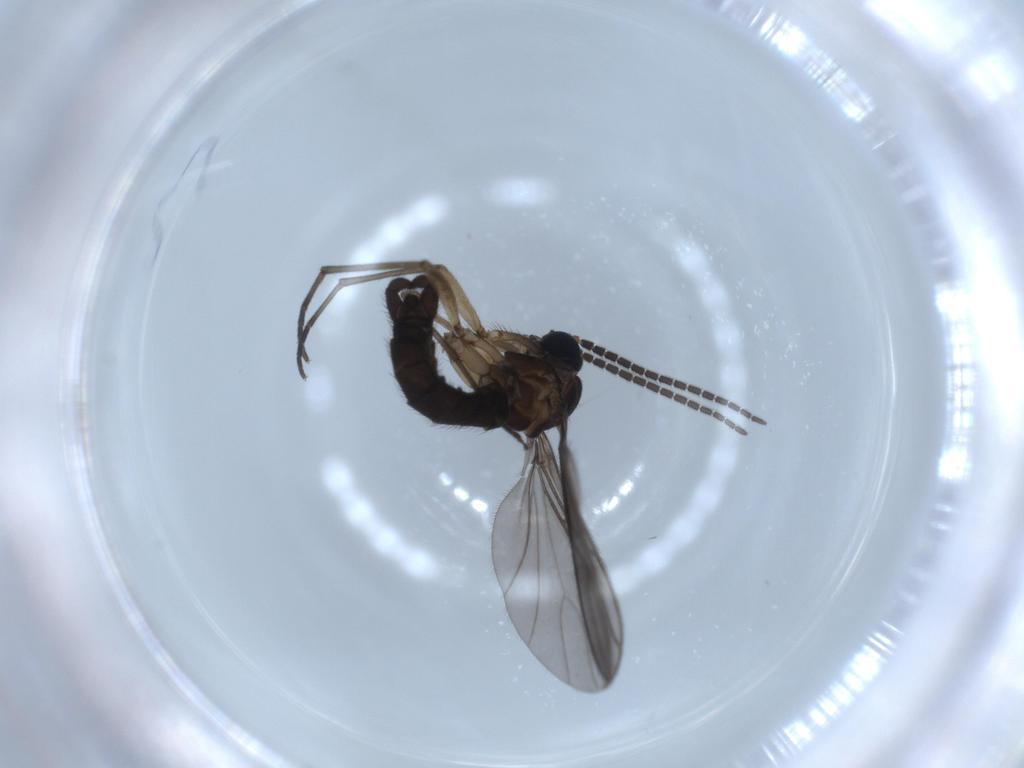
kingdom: Animalia
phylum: Arthropoda
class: Insecta
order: Diptera
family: Sciaridae
